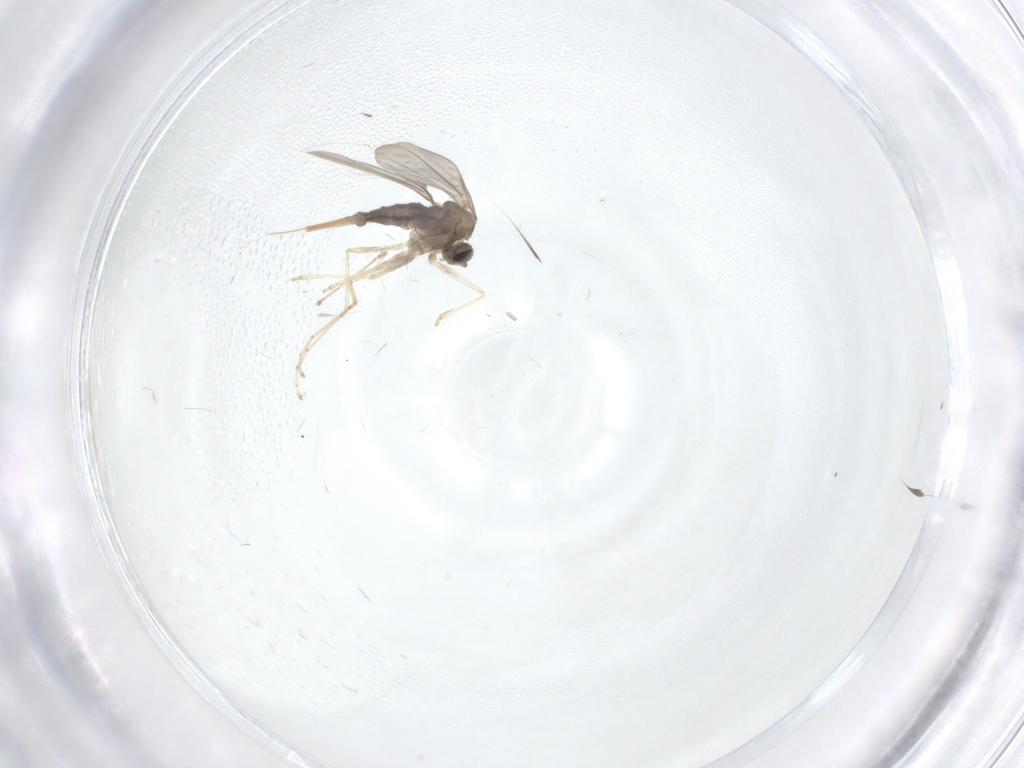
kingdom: Animalia
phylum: Arthropoda
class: Insecta
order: Diptera
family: Cecidomyiidae
